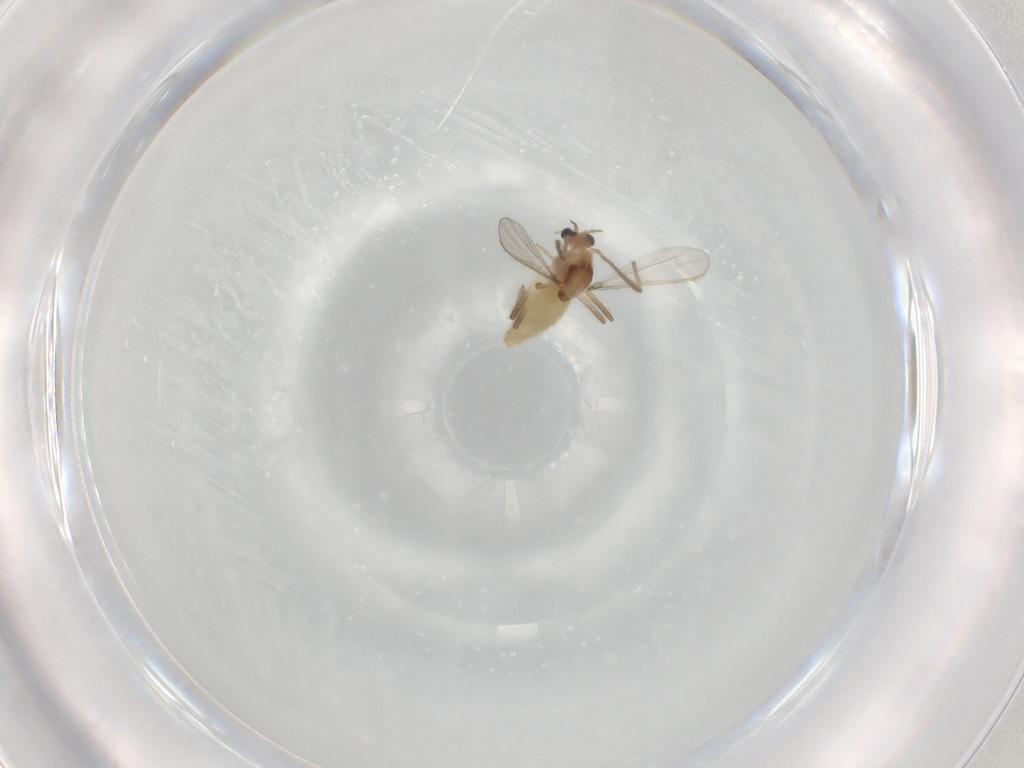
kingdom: Animalia
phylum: Arthropoda
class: Insecta
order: Diptera
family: Chironomidae
